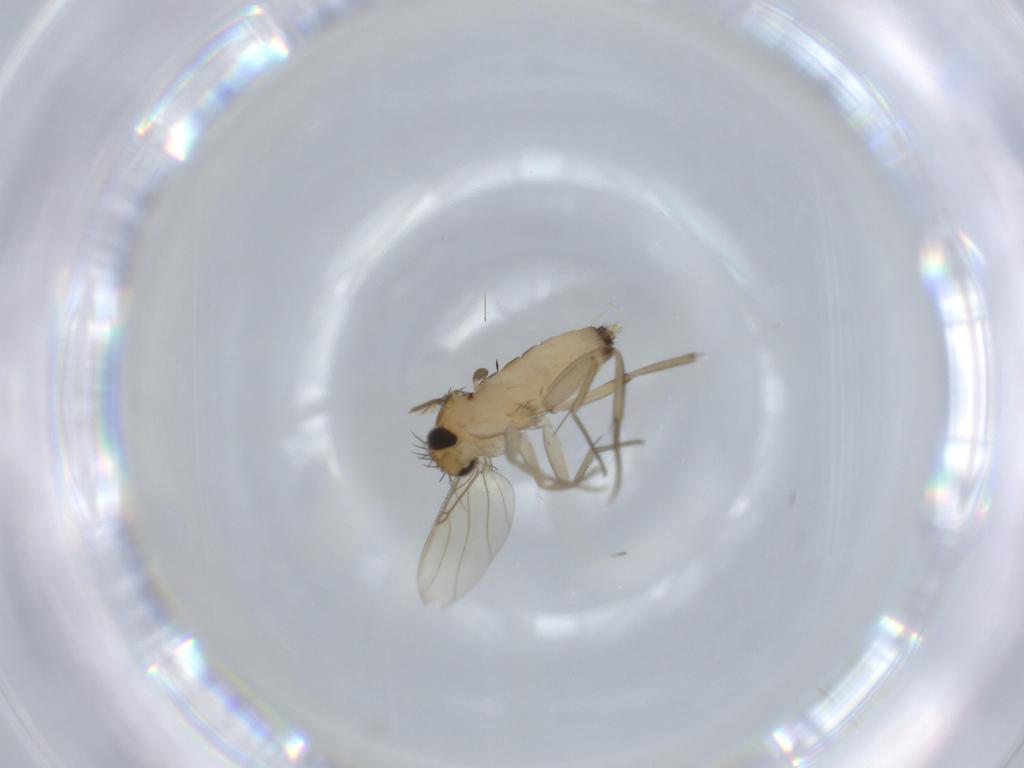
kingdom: Animalia
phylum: Arthropoda
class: Insecta
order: Diptera
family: Phoridae
